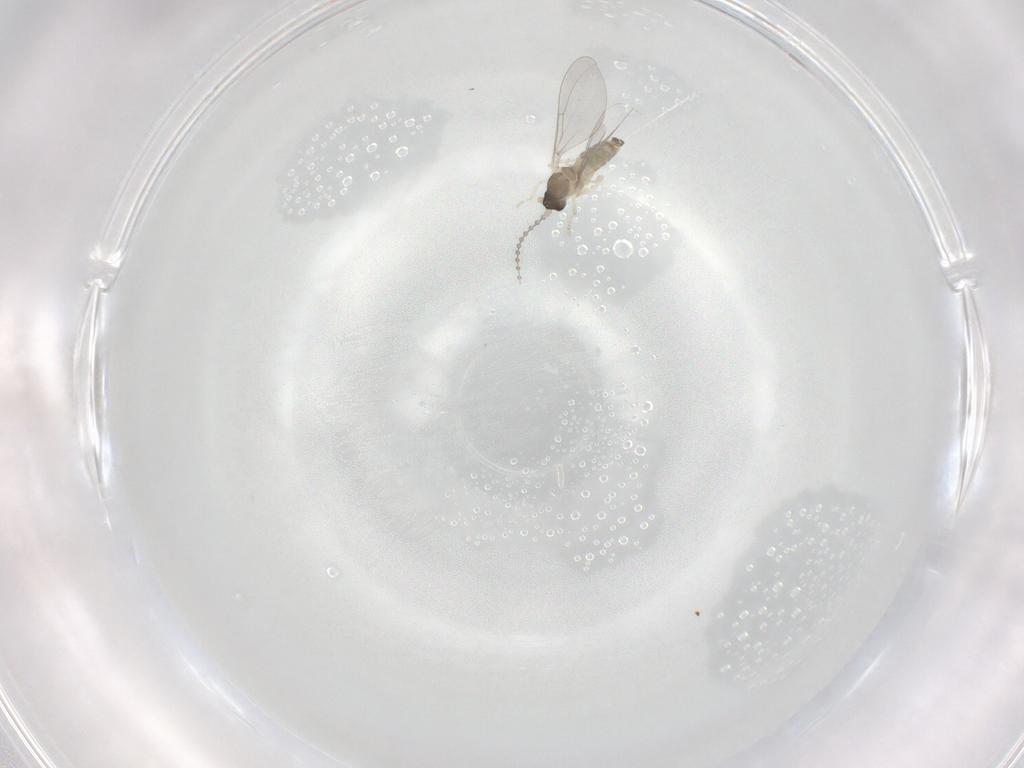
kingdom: Animalia
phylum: Arthropoda
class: Insecta
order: Diptera
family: Cecidomyiidae
